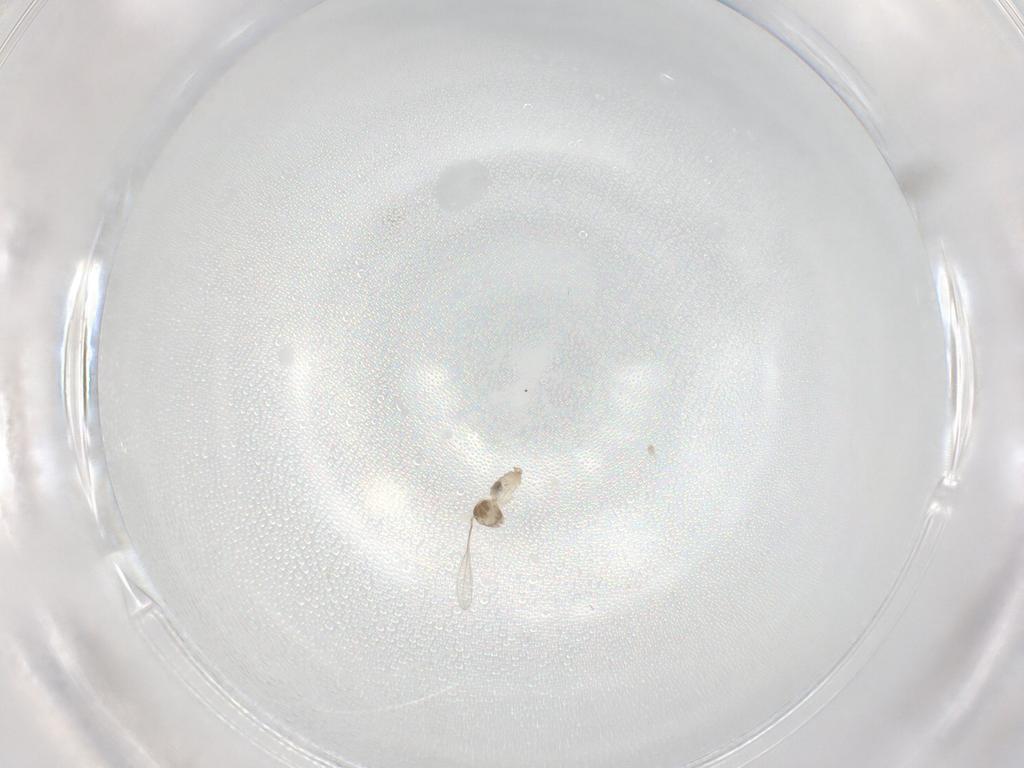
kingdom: Animalia
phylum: Arthropoda
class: Insecta
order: Diptera
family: Cecidomyiidae
